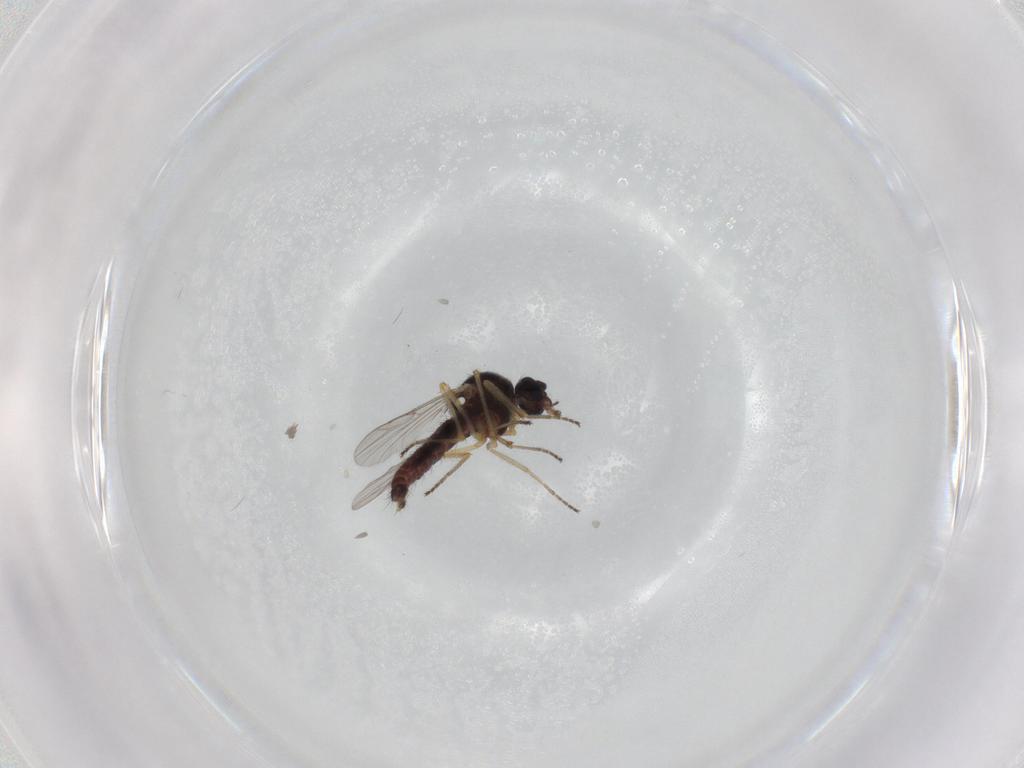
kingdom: Animalia
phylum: Arthropoda
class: Insecta
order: Diptera
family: Ceratopogonidae
